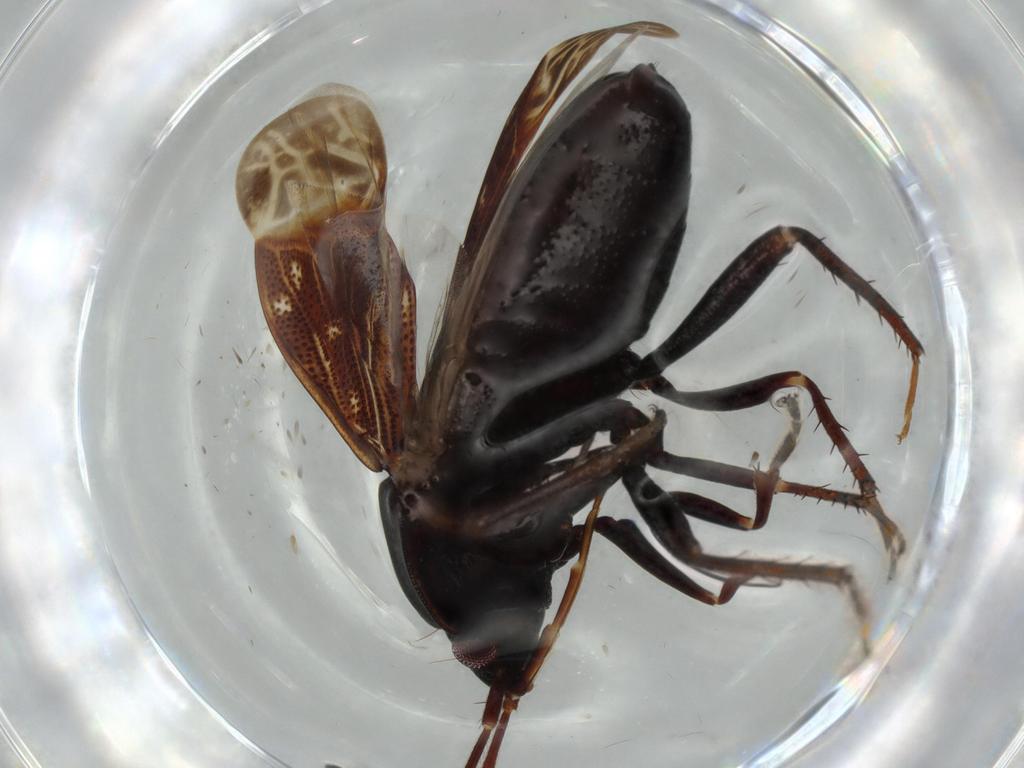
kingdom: Animalia
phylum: Arthropoda
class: Insecta
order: Hemiptera
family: Rhyparochromidae
